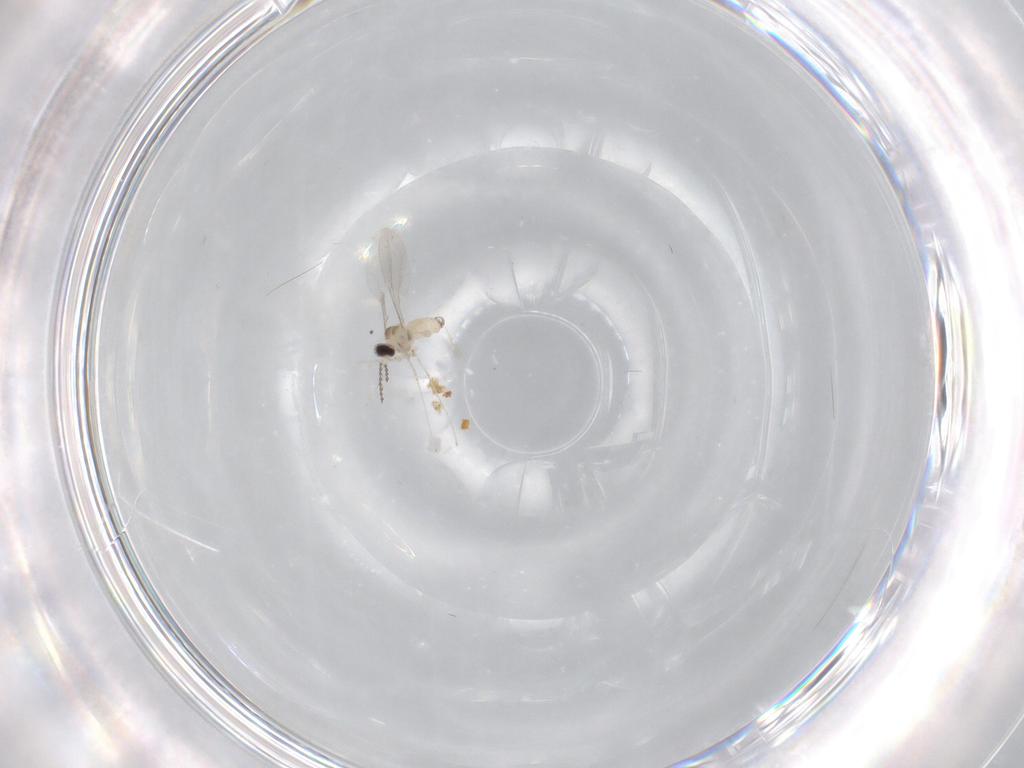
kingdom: Animalia
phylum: Arthropoda
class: Insecta
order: Diptera
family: Cecidomyiidae
